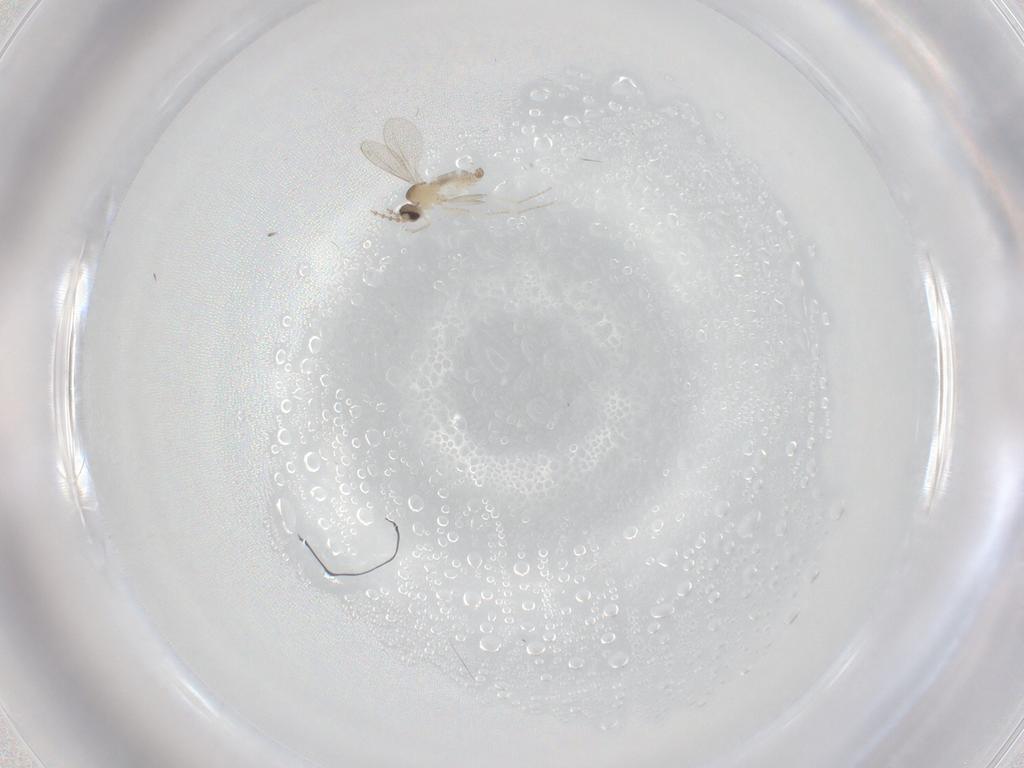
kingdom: Animalia
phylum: Arthropoda
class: Insecta
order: Diptera
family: Cecidomyiidae
